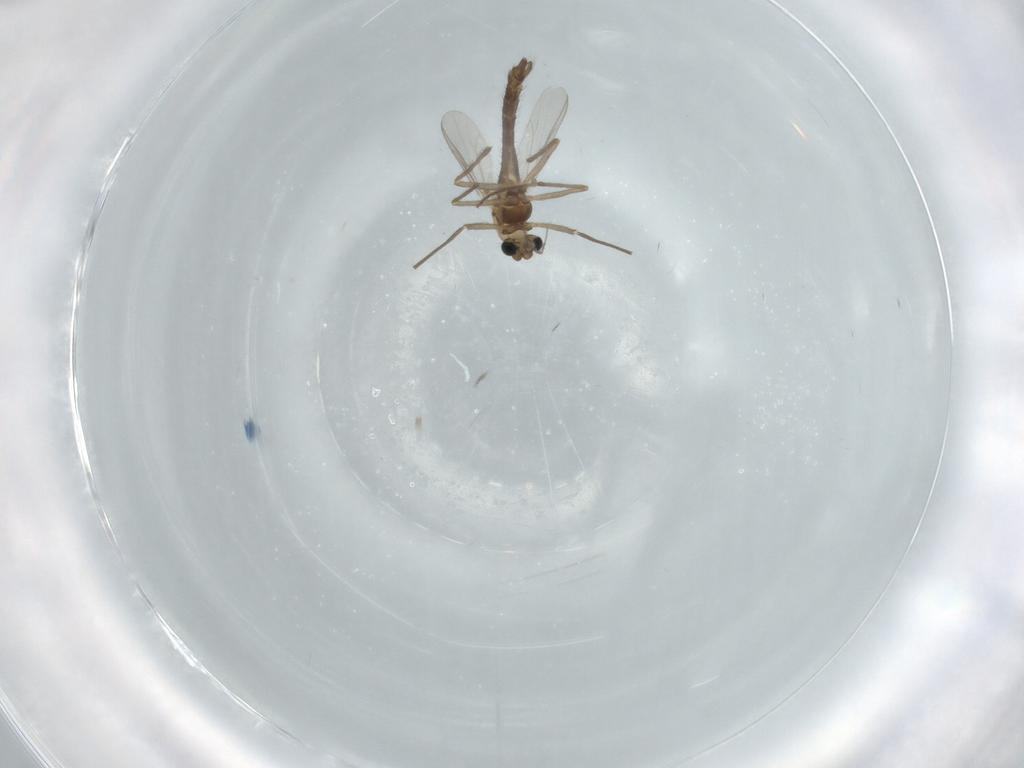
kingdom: Animalia
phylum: Arthropoda
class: Insecta
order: Diptera
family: Chironomidae
